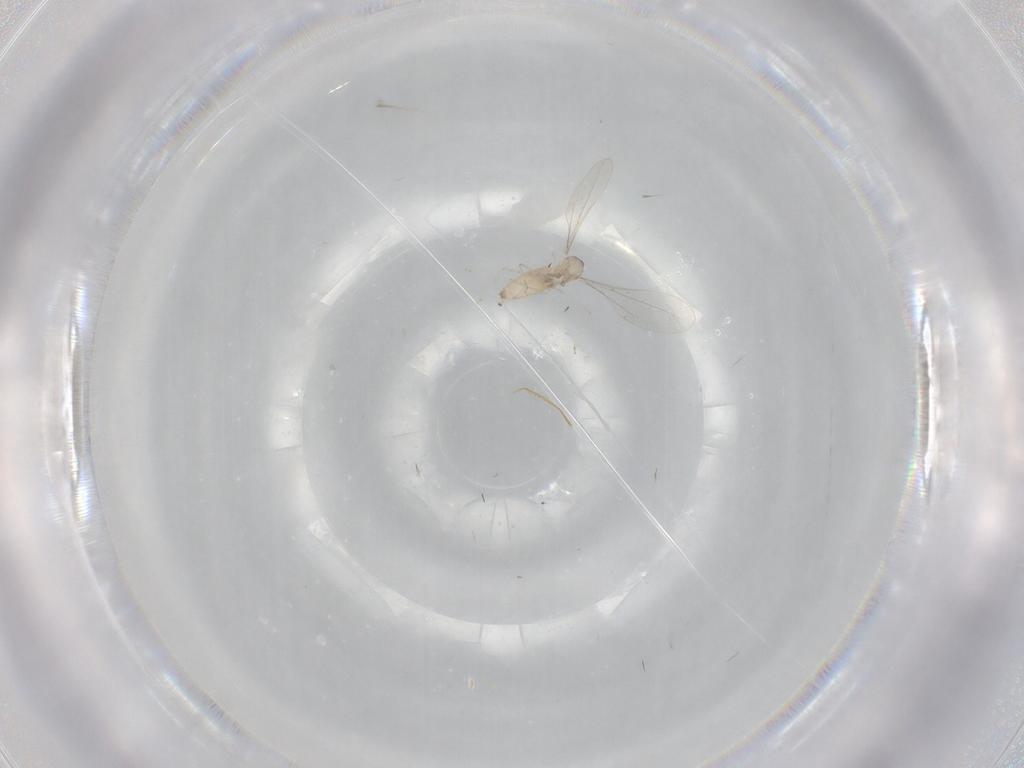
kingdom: Animalia
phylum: Arthropoda
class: Insecta
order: Diptera
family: Cecidomyiidae
